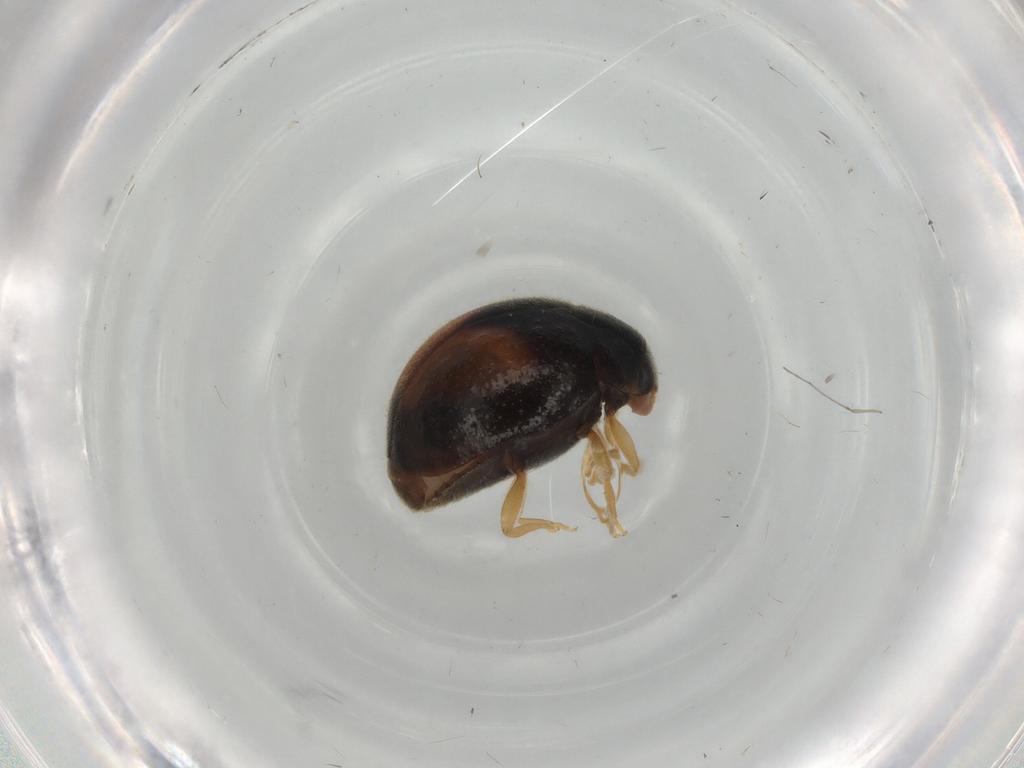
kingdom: Animalia
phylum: Arthropoda
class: Insecta
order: Coleoptera
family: Coccinellidae
